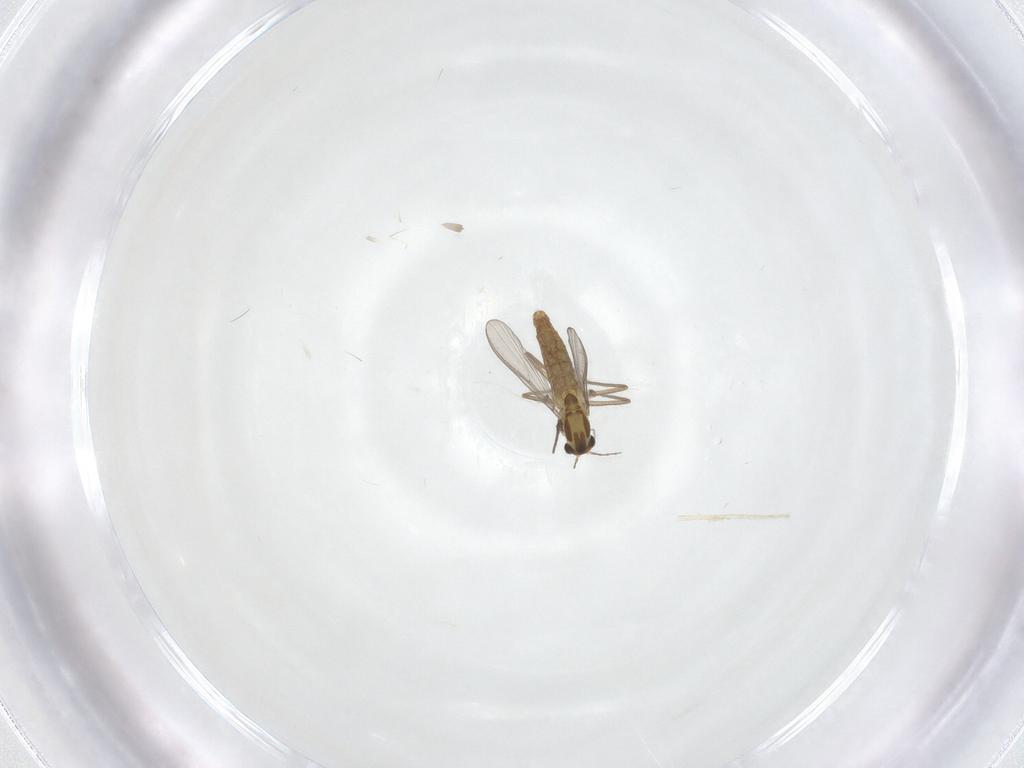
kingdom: Animalia
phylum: Arthropoda
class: Insecta
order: Diptera
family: Chironomidae
